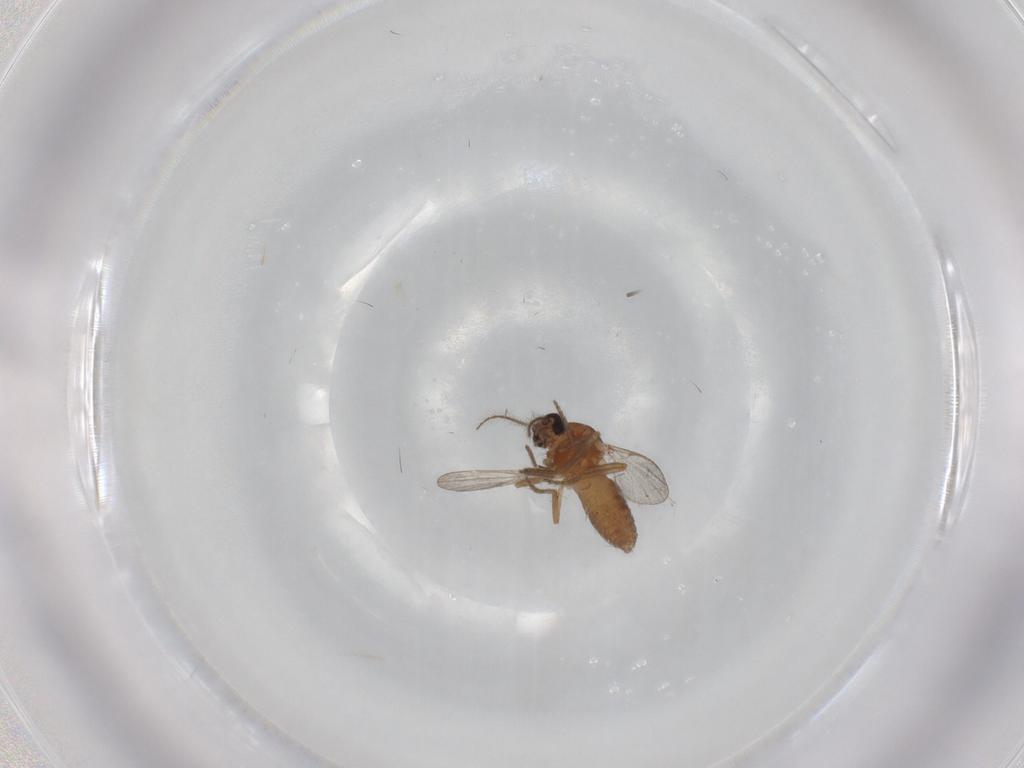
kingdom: Animalia
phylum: Arthropoda
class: Insecta
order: Diptera
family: Ceratopogonidae
